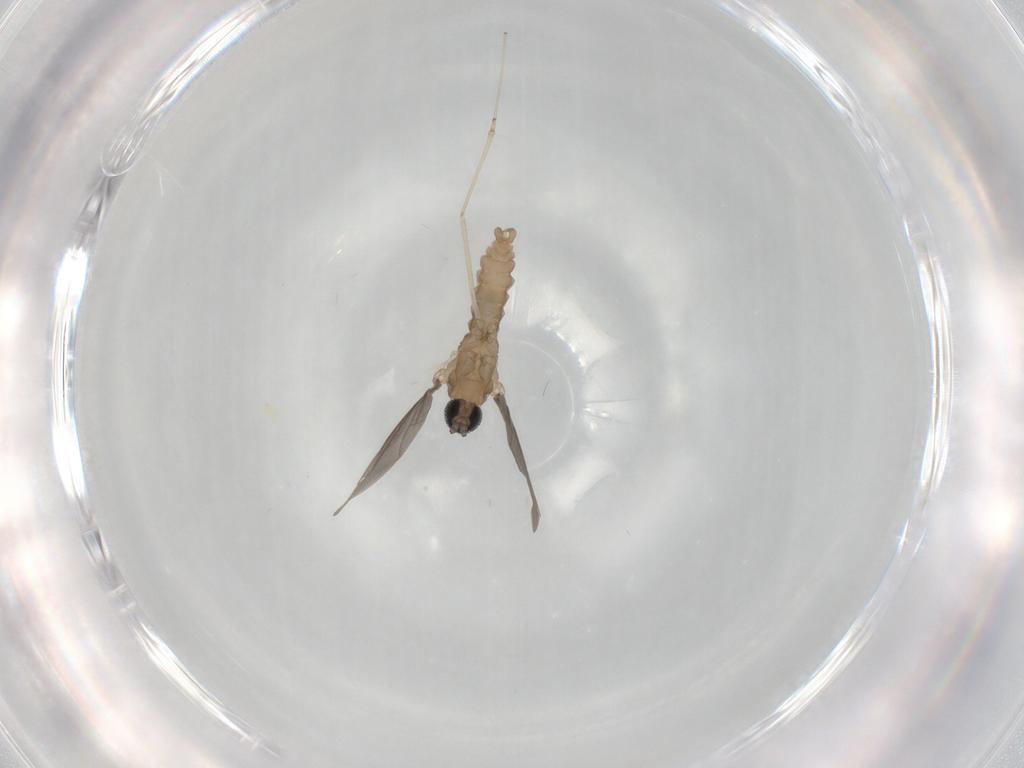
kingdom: Animalia
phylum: Arthropoda
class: Insecta
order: Diptera
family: Cecidomyiidae
